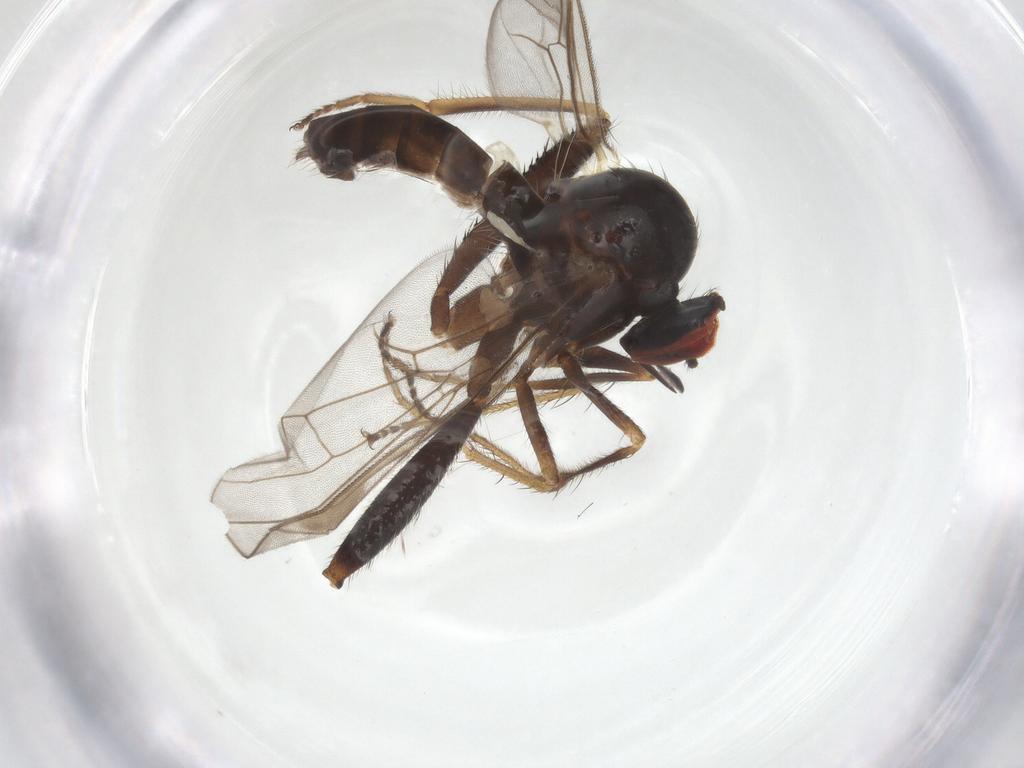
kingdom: Animalia
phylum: Arthropoda
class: Insecta
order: Diptera
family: Hybotidae
